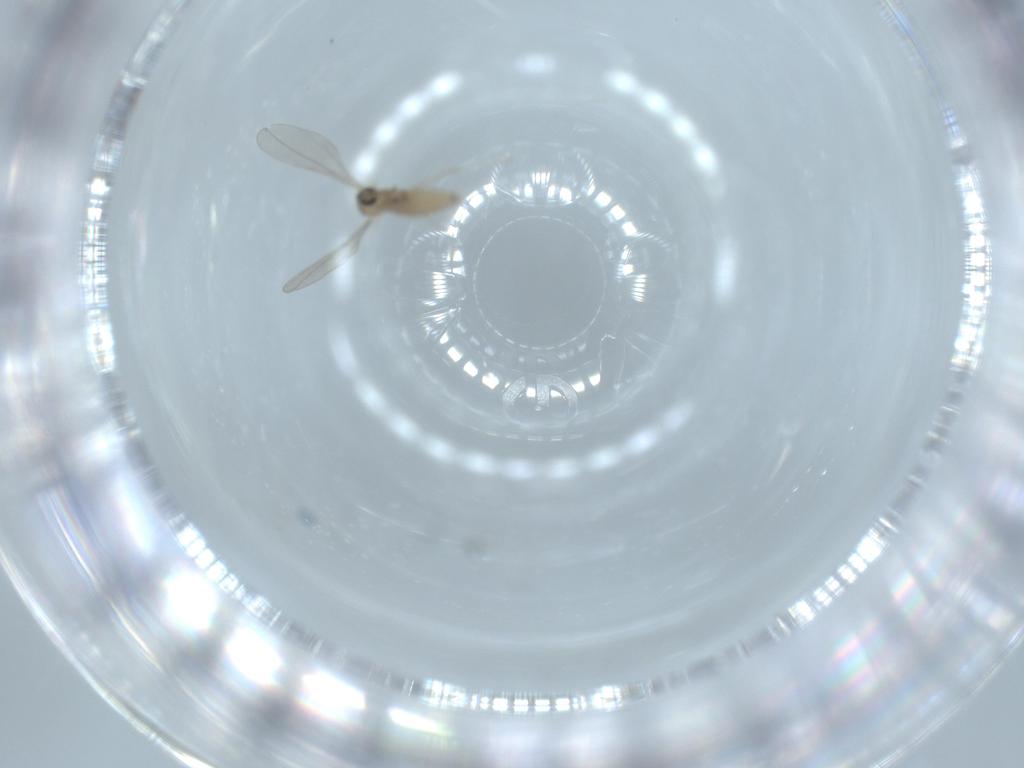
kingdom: Animalia
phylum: Arthropoda
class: Insecta
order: Diptera
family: Cecidomyiidae
